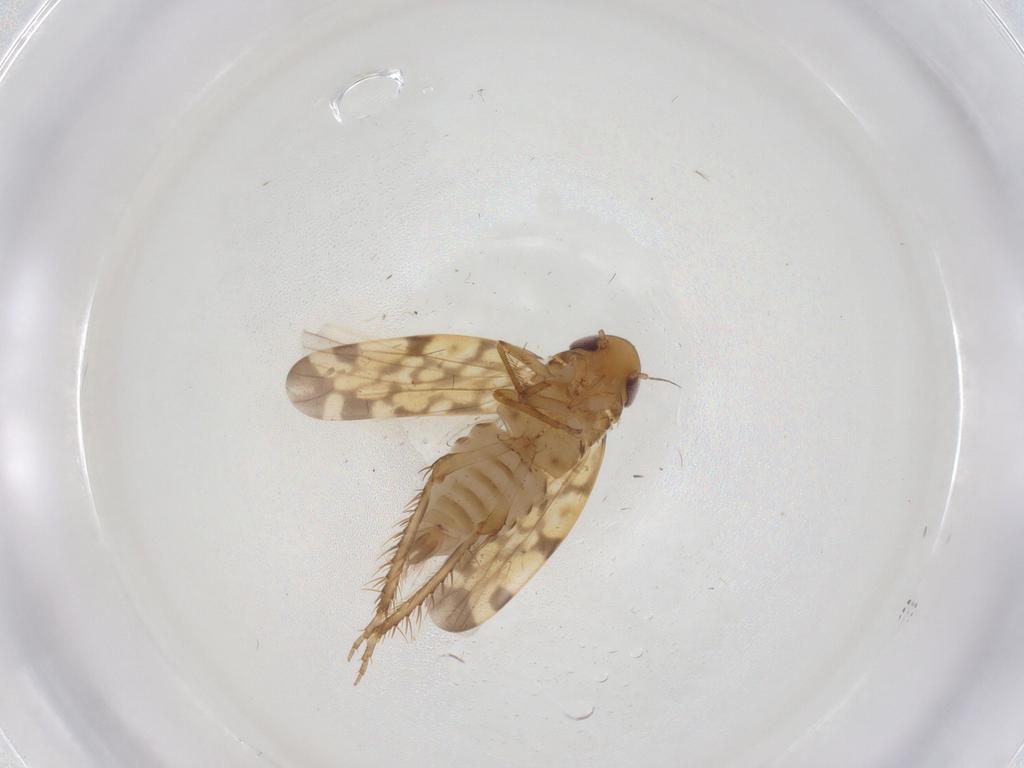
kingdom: Animalia
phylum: Arthropoda
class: Insecta
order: Hemiptera
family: Cicadellidae
